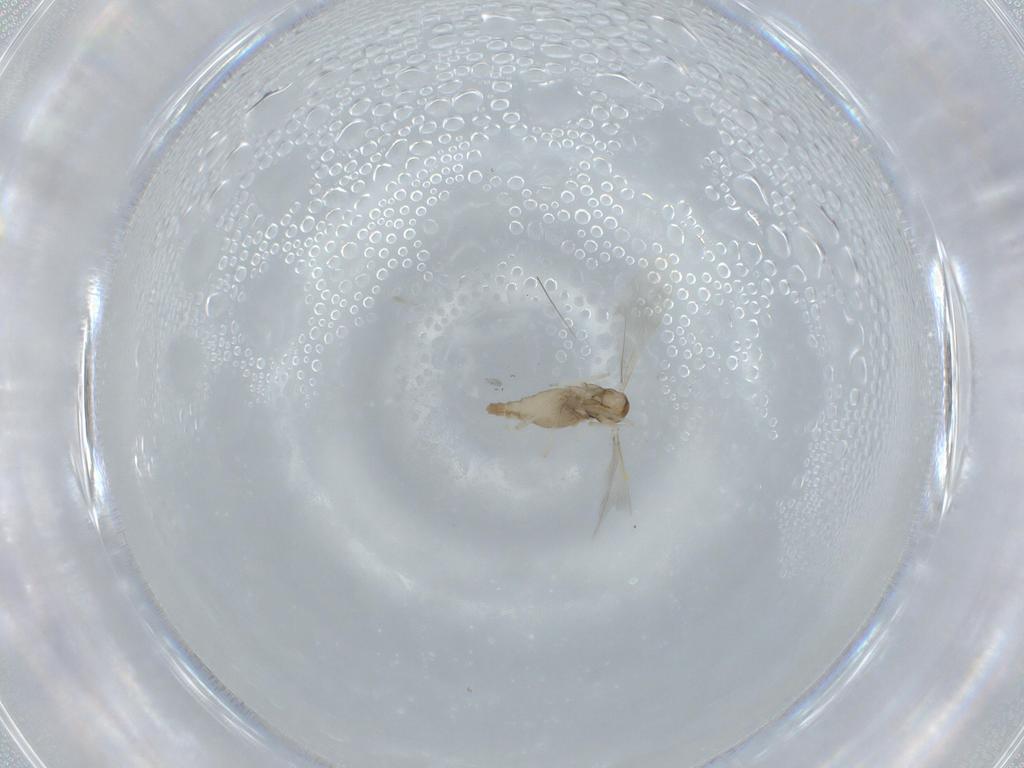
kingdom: Animalia
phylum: Arthropoda
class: Insecta
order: Diptera
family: Cecidomyiidae
